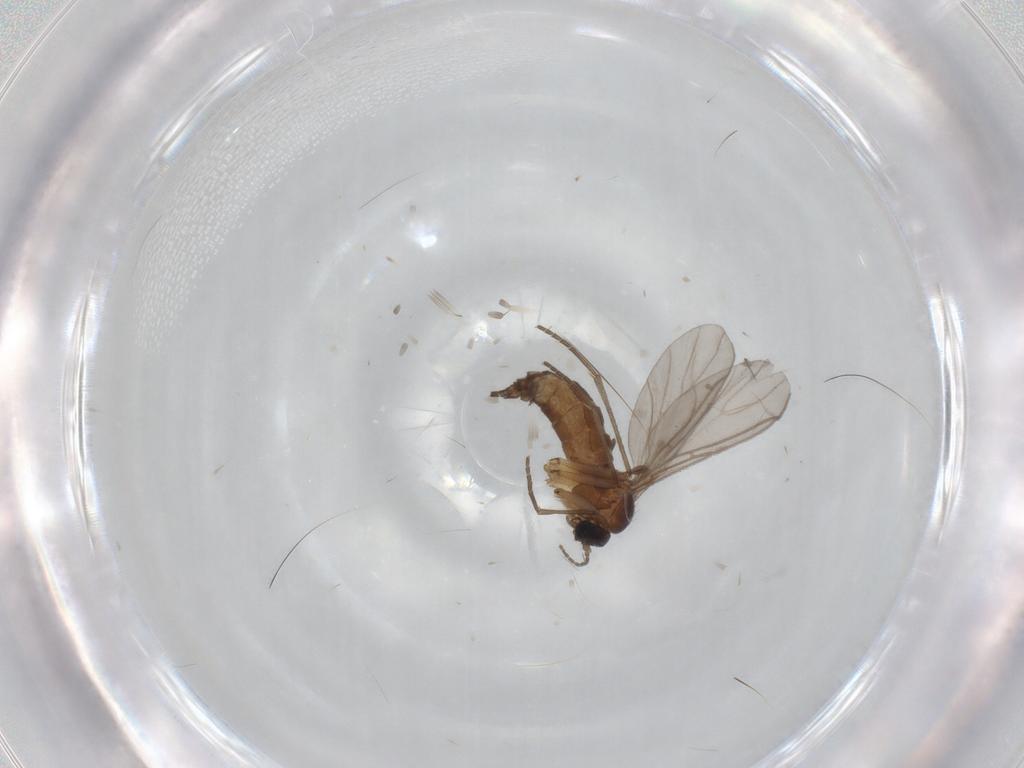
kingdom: Animalia
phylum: Arthropoda
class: Insecta
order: Diptera
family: Sciaridae
